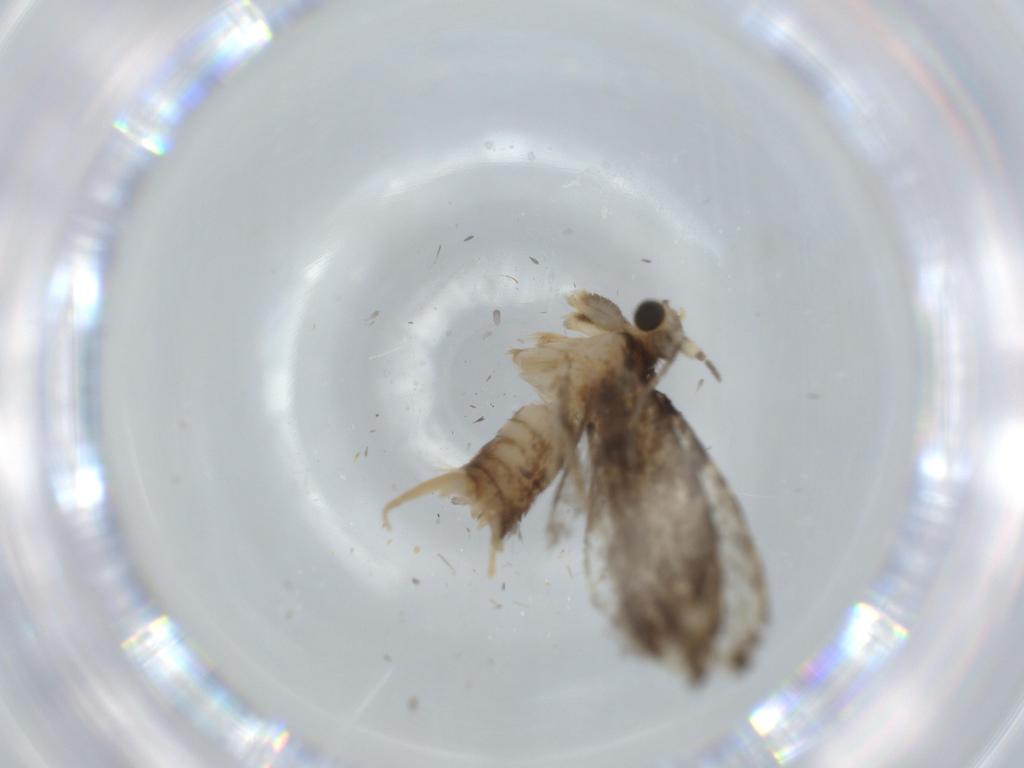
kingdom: Animalia
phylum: Arthropoda
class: Insecta
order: Lepidoptera
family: Tineidae
